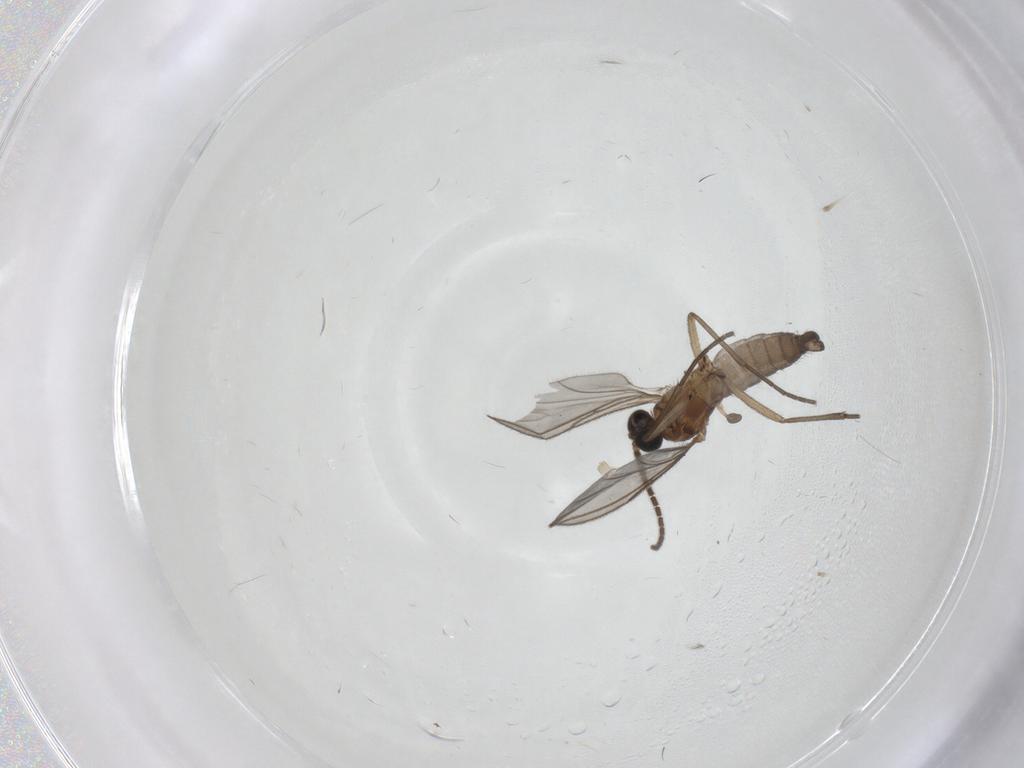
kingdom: Animalia
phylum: Arthropoda
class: Insecta
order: Diptera
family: Sciaridae
